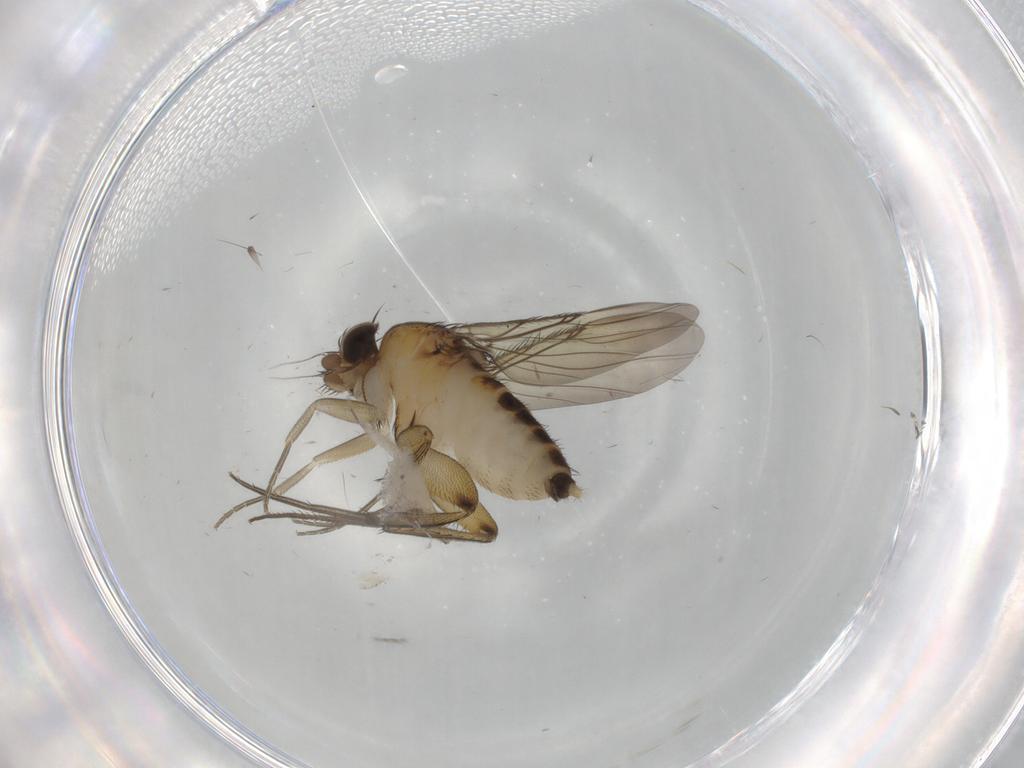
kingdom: Animalia
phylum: Arthropoda
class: Insecta
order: Diptera
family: Phoridae
